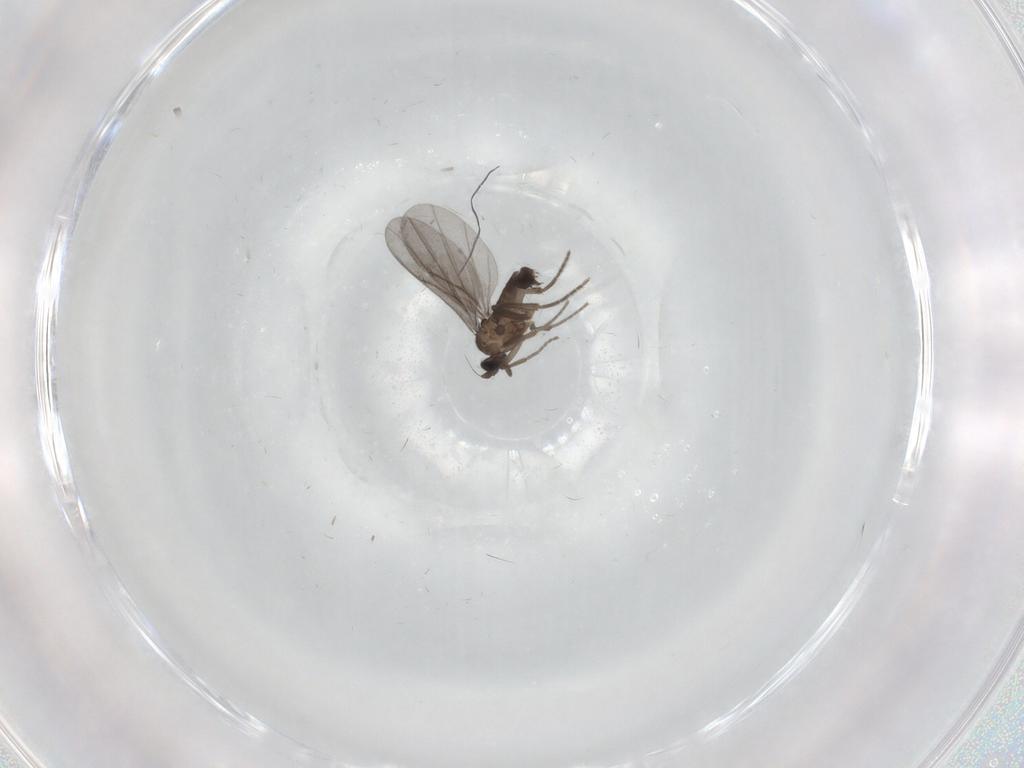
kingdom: Animalia
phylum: Arthropoda
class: Insecta
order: Diptera
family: Phoridae
